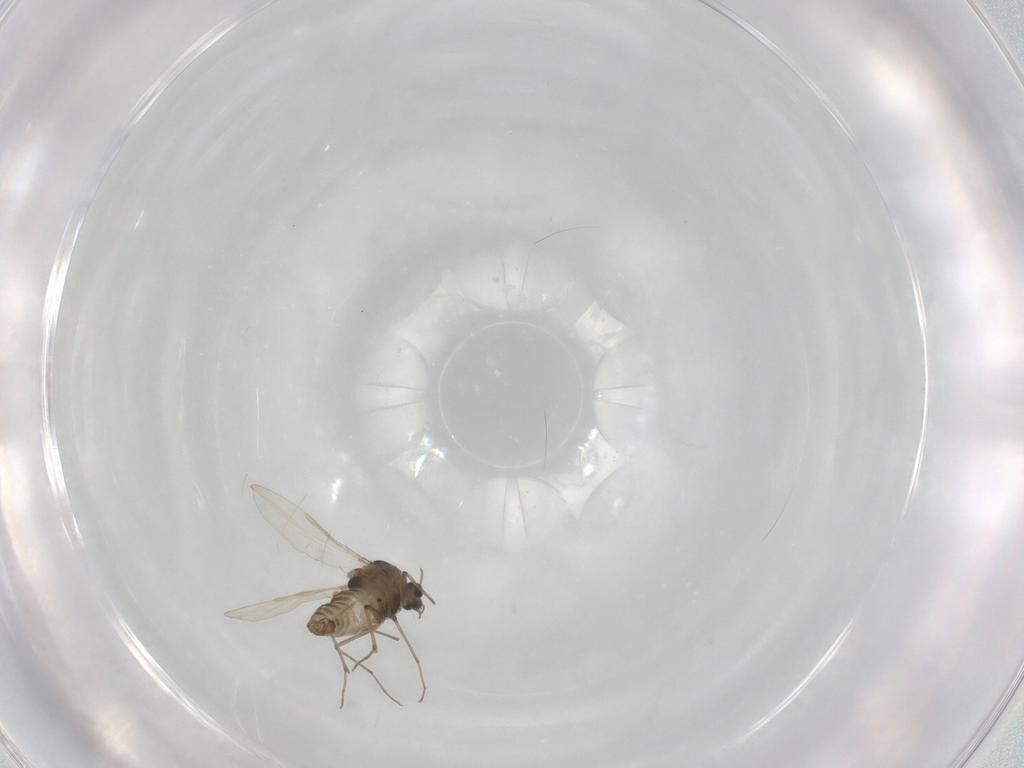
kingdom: Animalia
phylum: Arthropoda
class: Insecta
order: Diptera
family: Chironomidae
